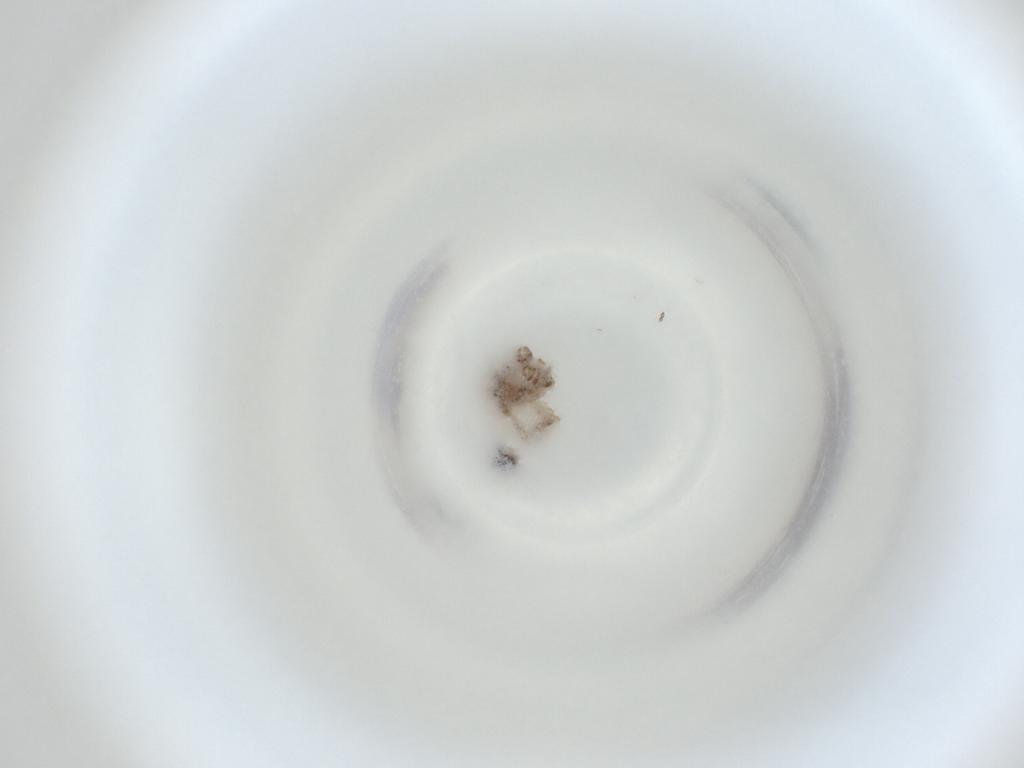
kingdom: Animalia
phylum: Arthropoda
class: Insecta
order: Diptera
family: Cecidomyiidae
